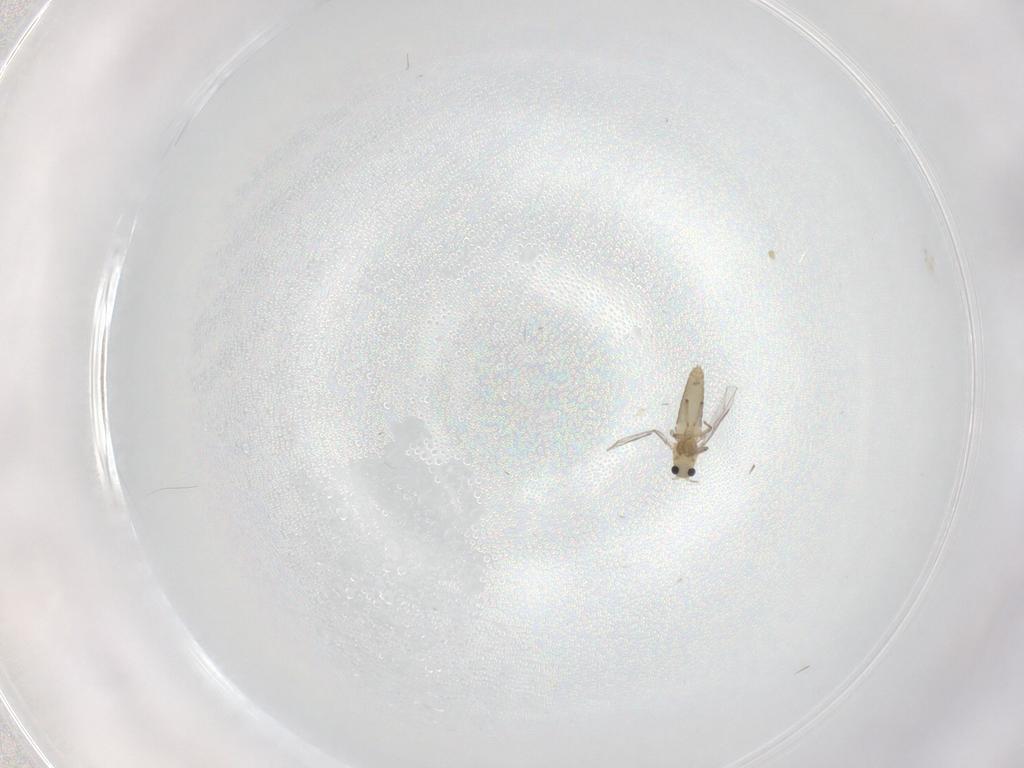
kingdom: Animalia
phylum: Arthropoda
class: Insecta
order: Diptera
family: Chironomidae
